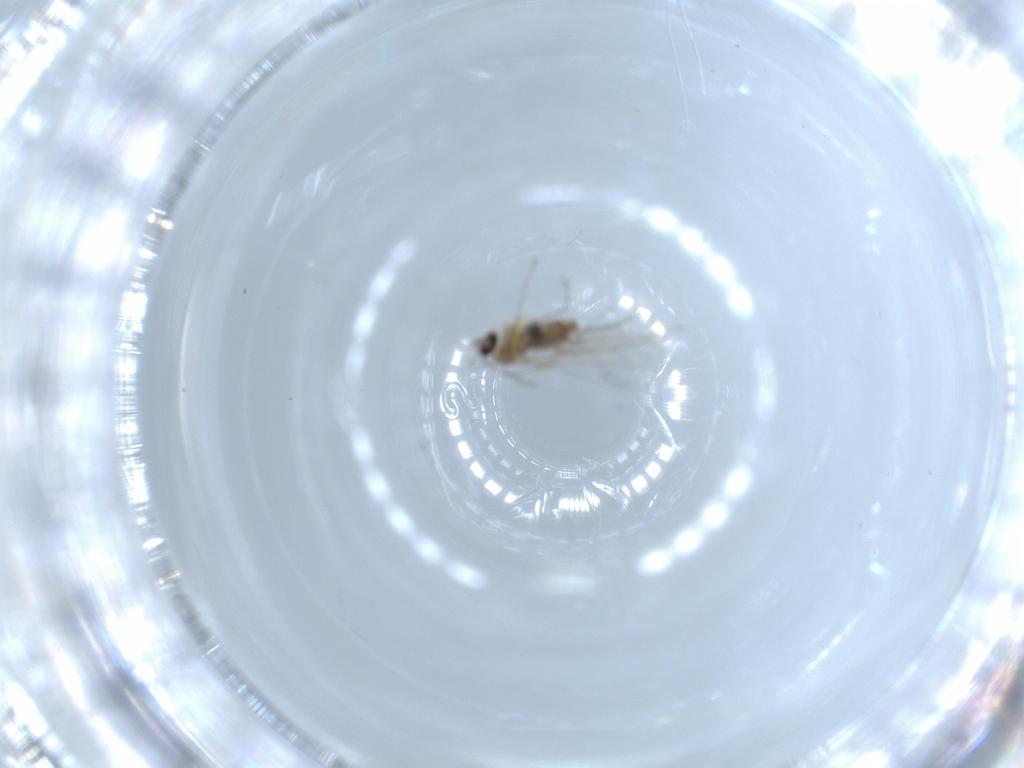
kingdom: Animalia
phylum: Arthropoda
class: Insecta
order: Diptera
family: Cecidomyiidae
